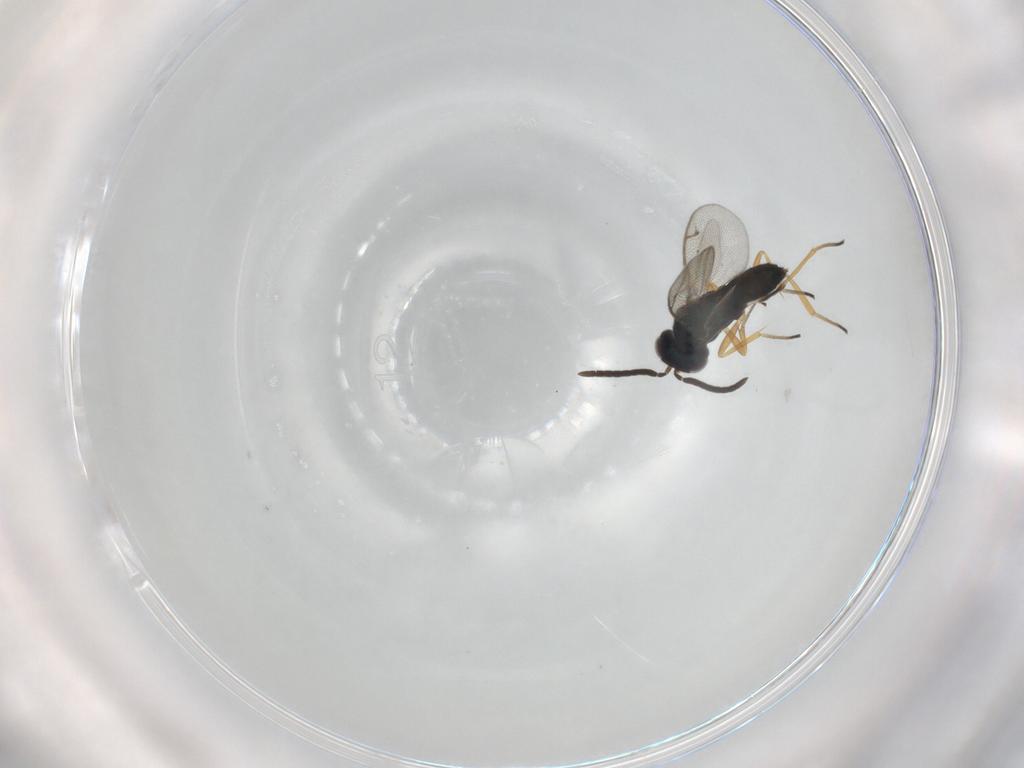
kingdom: Animalia
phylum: Arthropoda
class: Insecta
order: Hymenoptera
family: Eupelmidae
